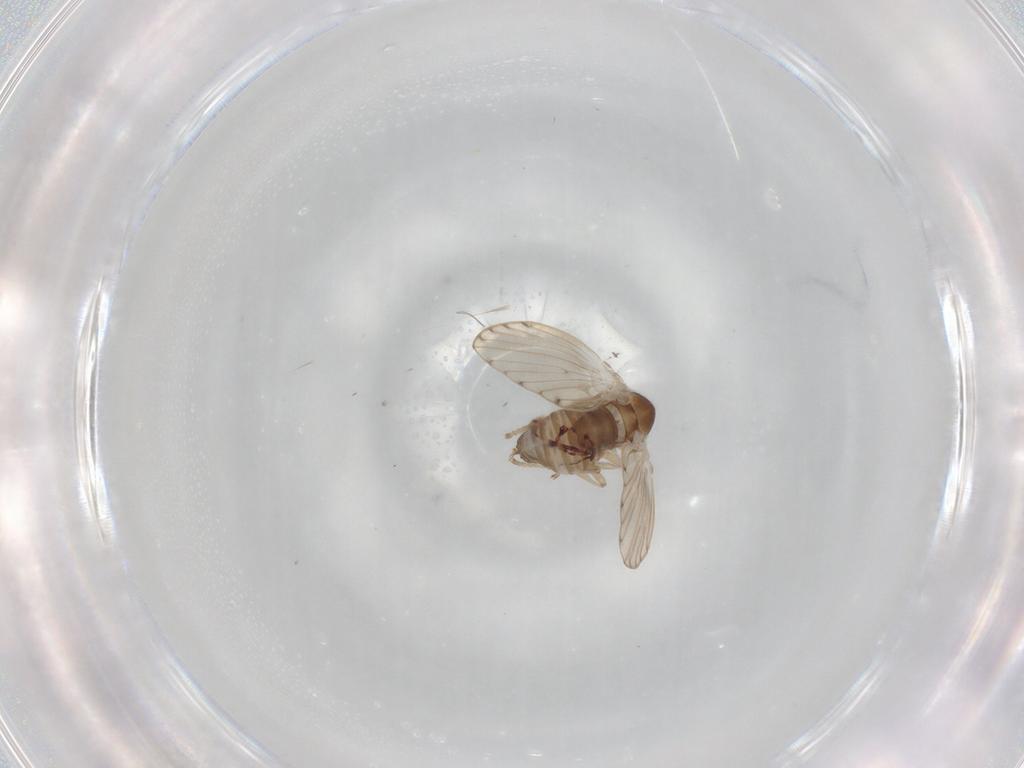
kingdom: Animalia
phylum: Arthropoda
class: Insecta
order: Diptera
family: Psychodidae
